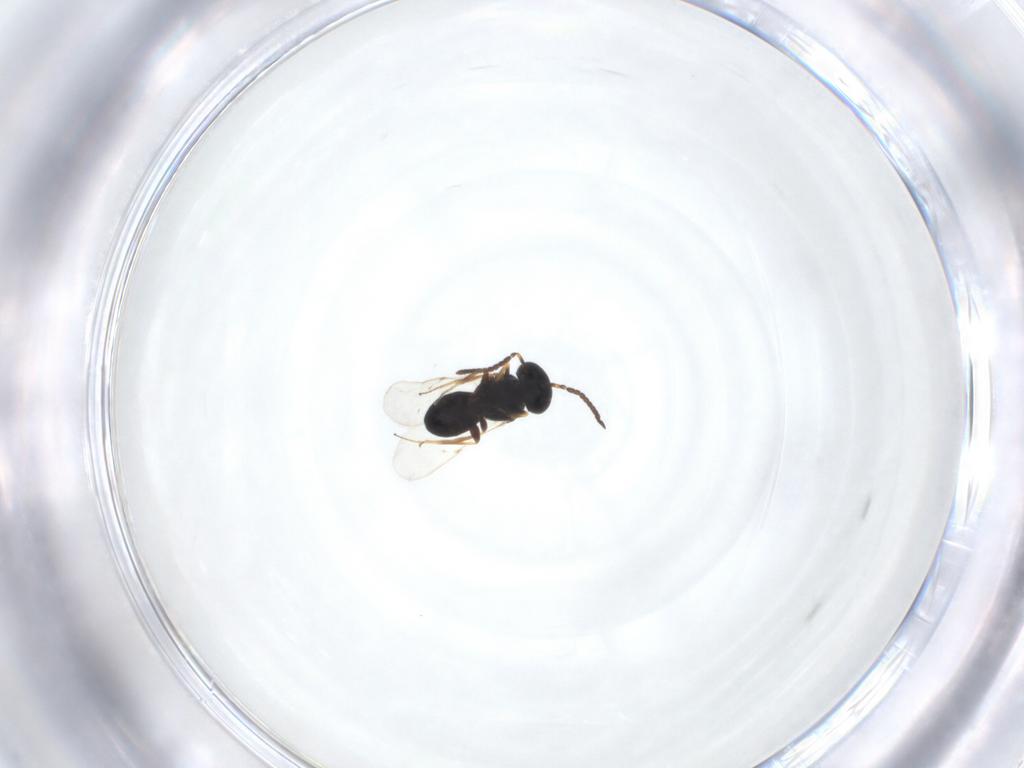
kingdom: Animalia
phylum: Arthropoda
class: Insecta
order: Hymenoptera
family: Scelionidae
